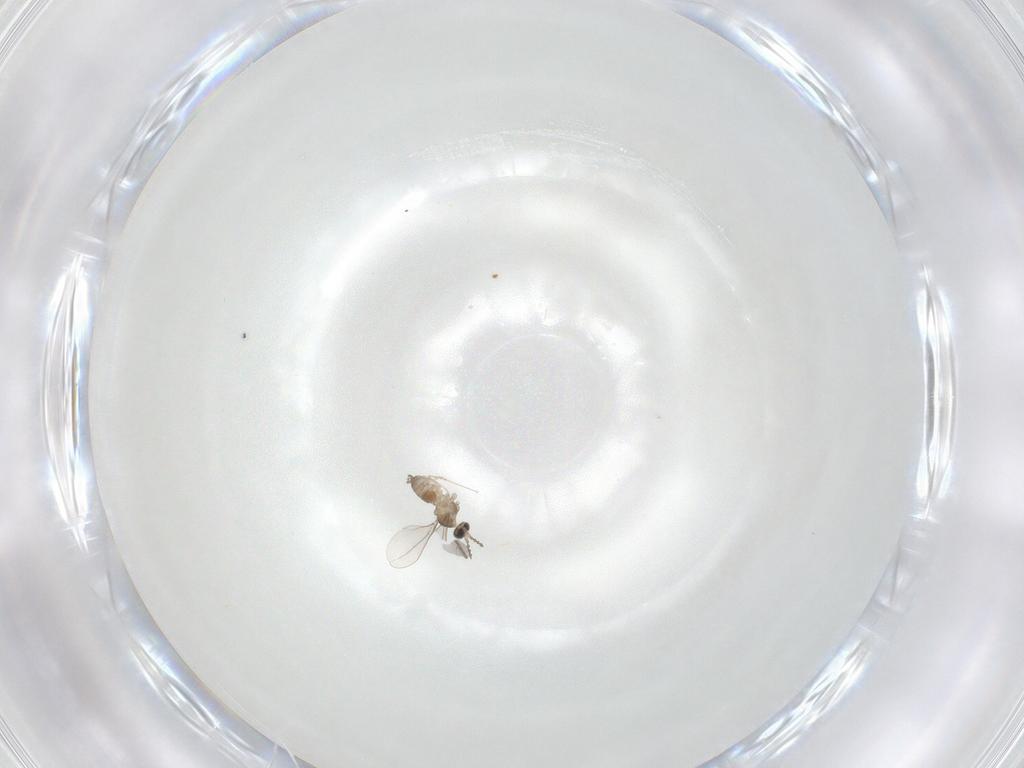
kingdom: Animalia
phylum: Arthropoda
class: Insecta
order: Diptera
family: Cecidomyiidae
